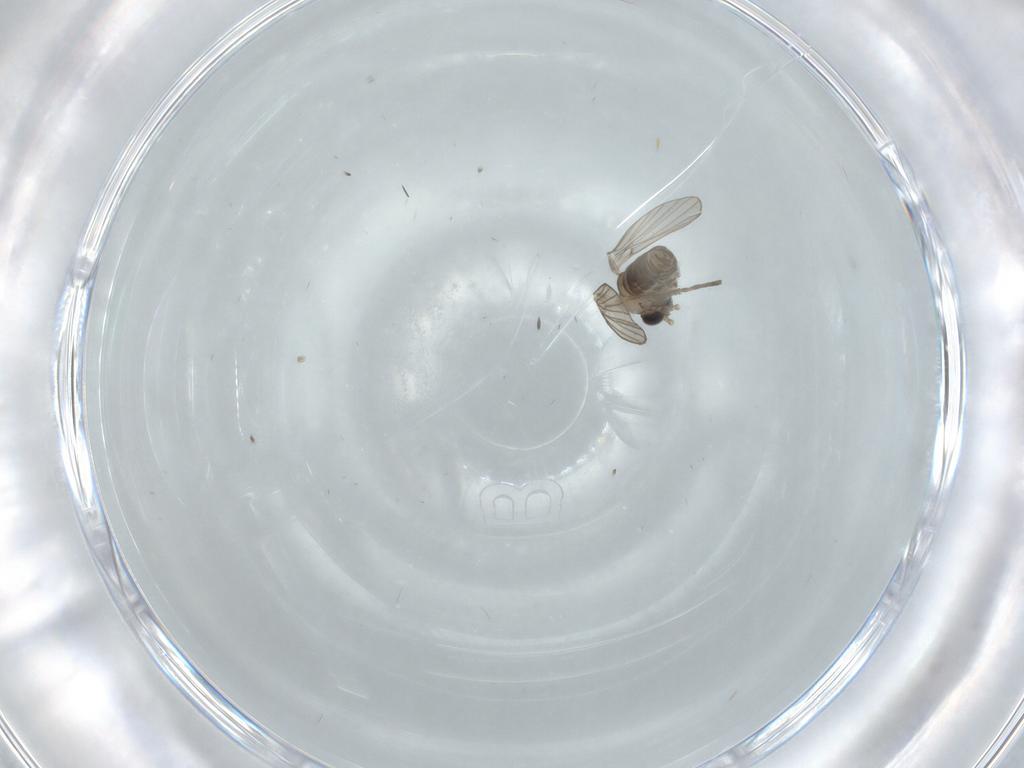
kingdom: Animalia
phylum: Arthropoda
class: Insecta
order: Diptera
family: Psychodidae
